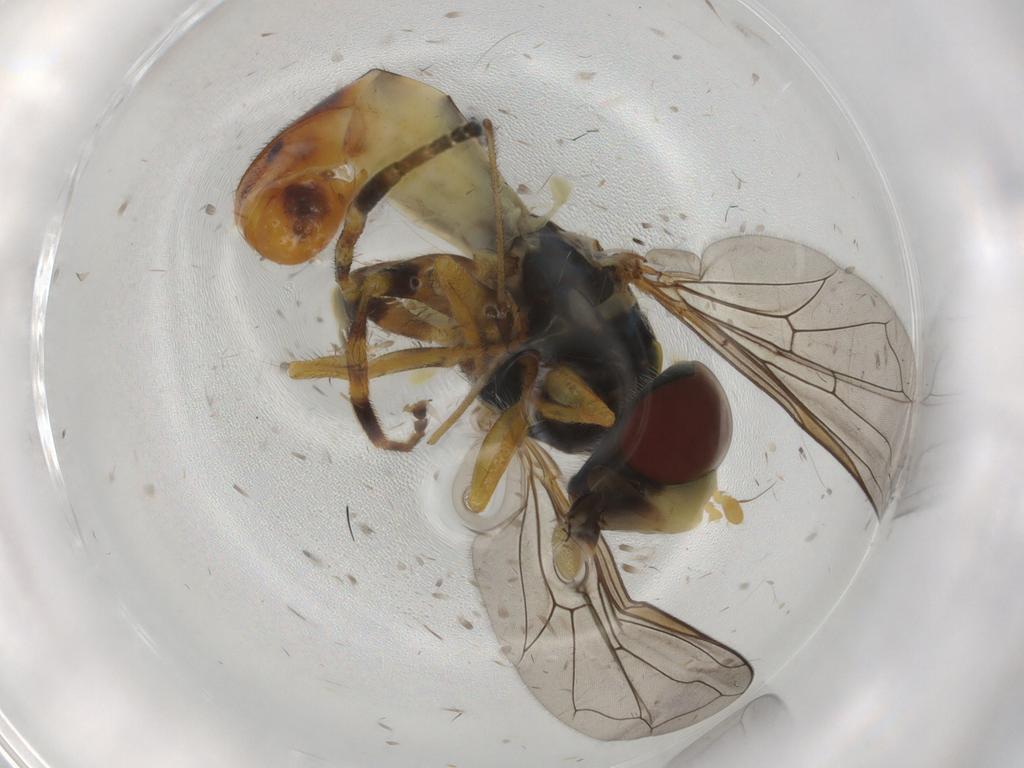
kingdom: Animalia
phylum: Arthropoda
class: Insecta
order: Diptera
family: Syrphidae
